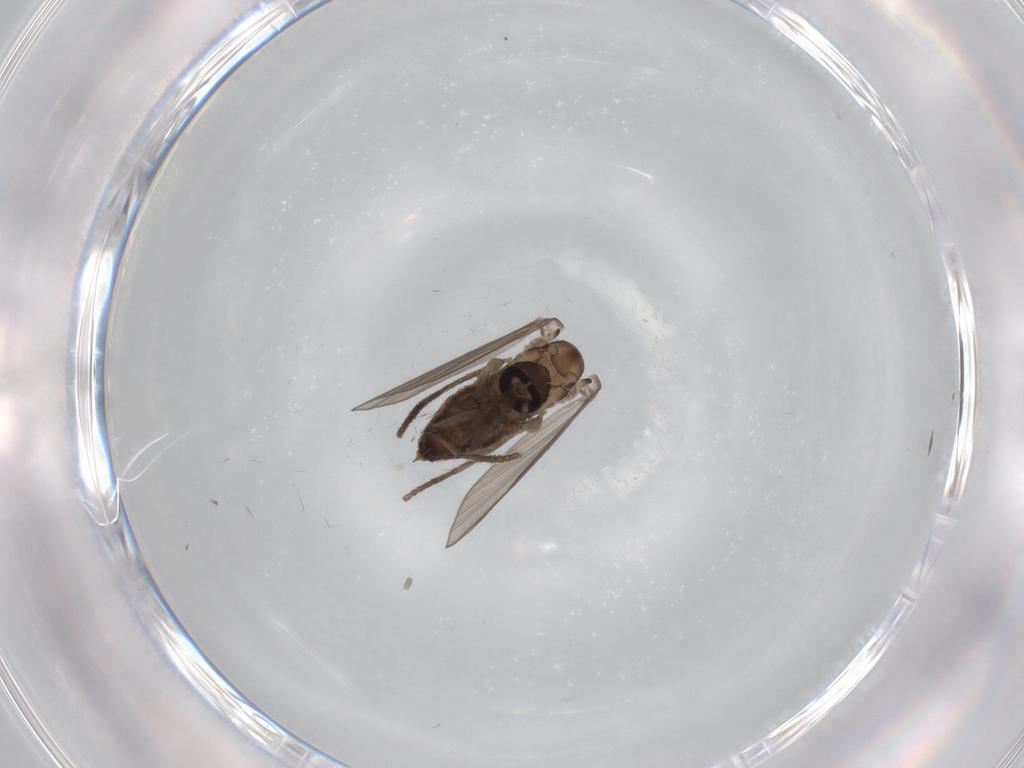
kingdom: Animalia
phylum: Arthropoda
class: Insecta
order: Diptera
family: Psychodidae
